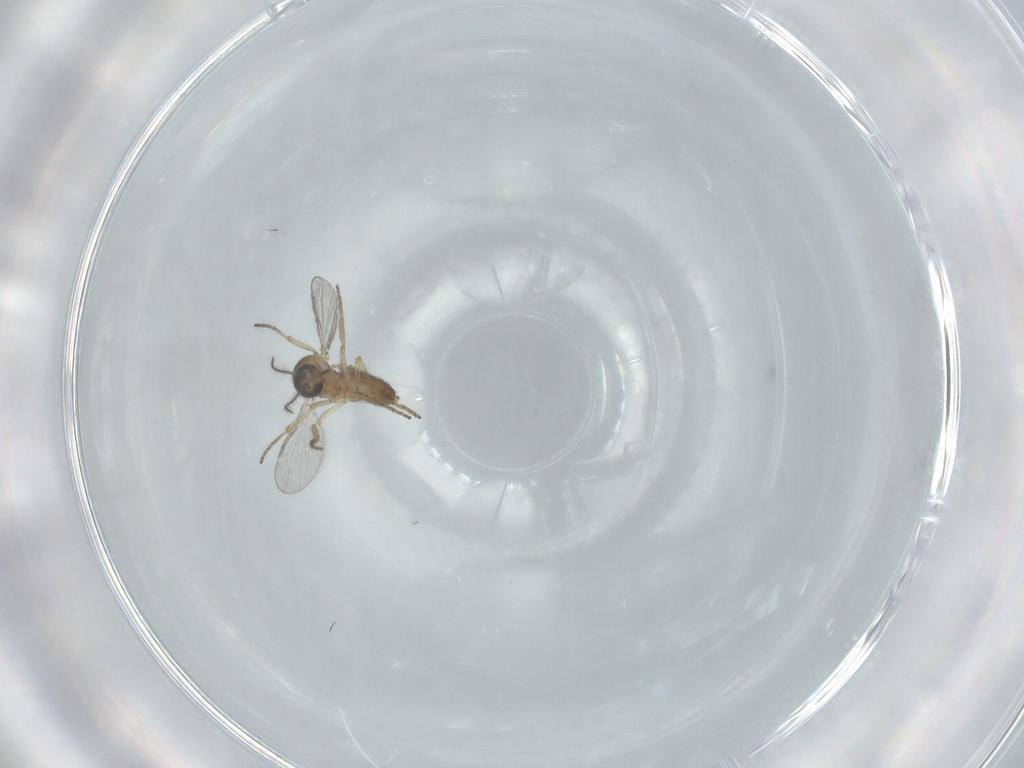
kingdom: Animalia
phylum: Arthropoda
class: Insecta
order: Diptera
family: Ceratopogonidae
